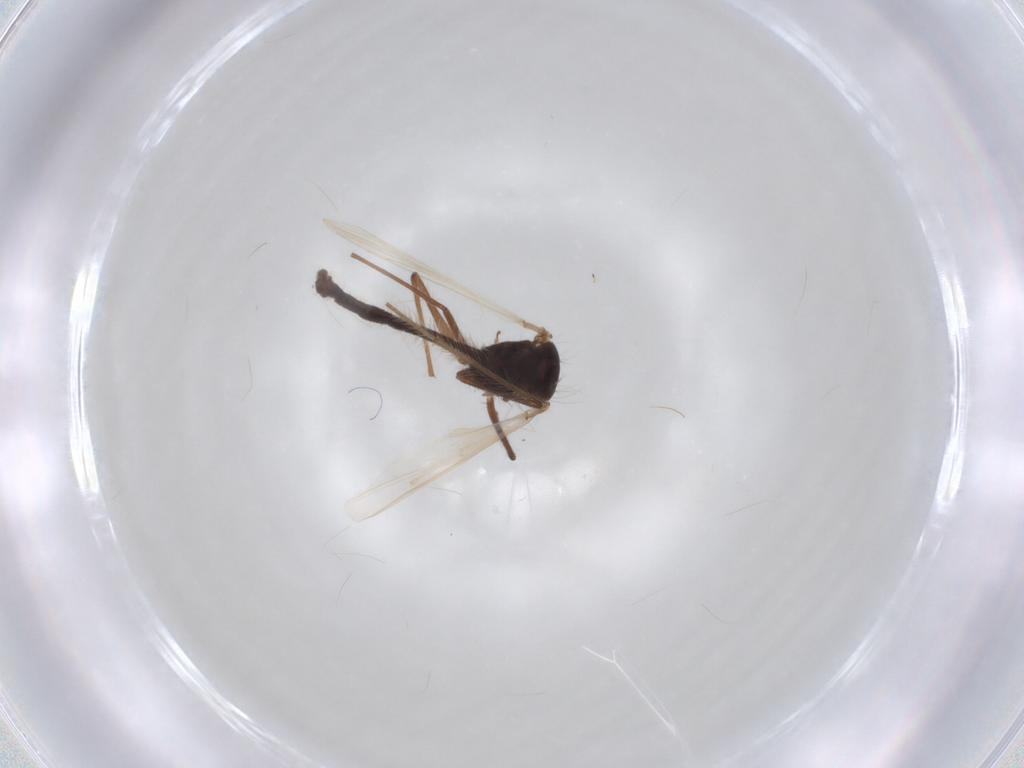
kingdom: Animalia
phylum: Arthropoda
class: Insecta
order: Diptera
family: Chironomidae
